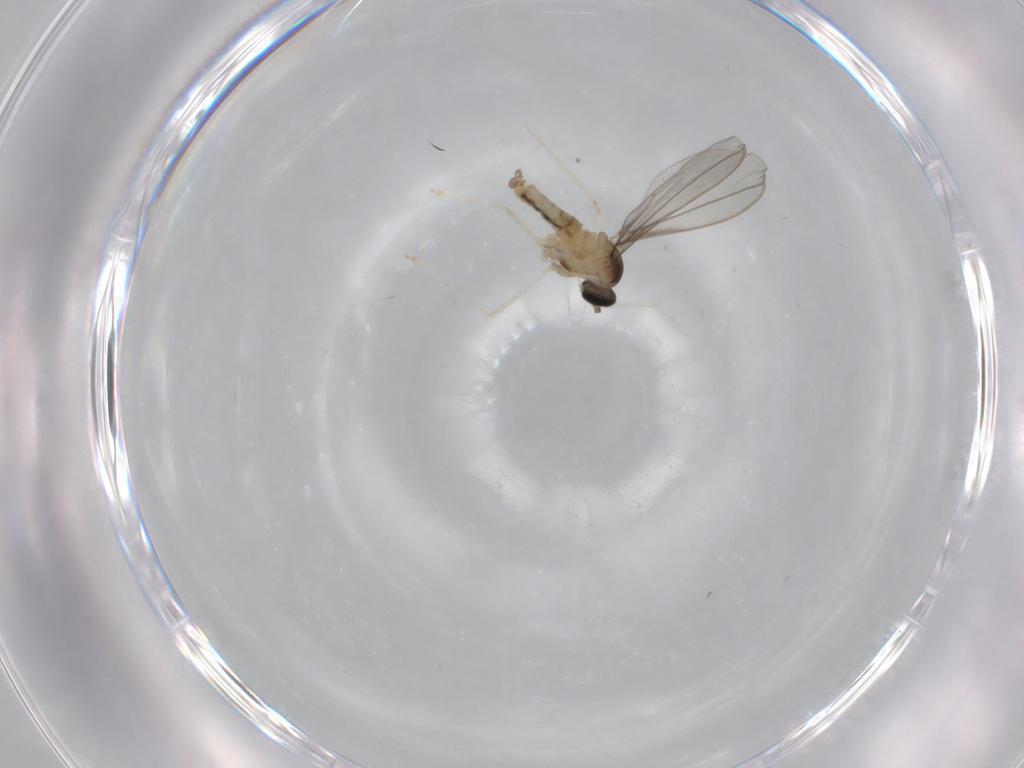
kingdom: Animalia
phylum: Arthropoda
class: Insecta
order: Diptera
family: Phoridae
